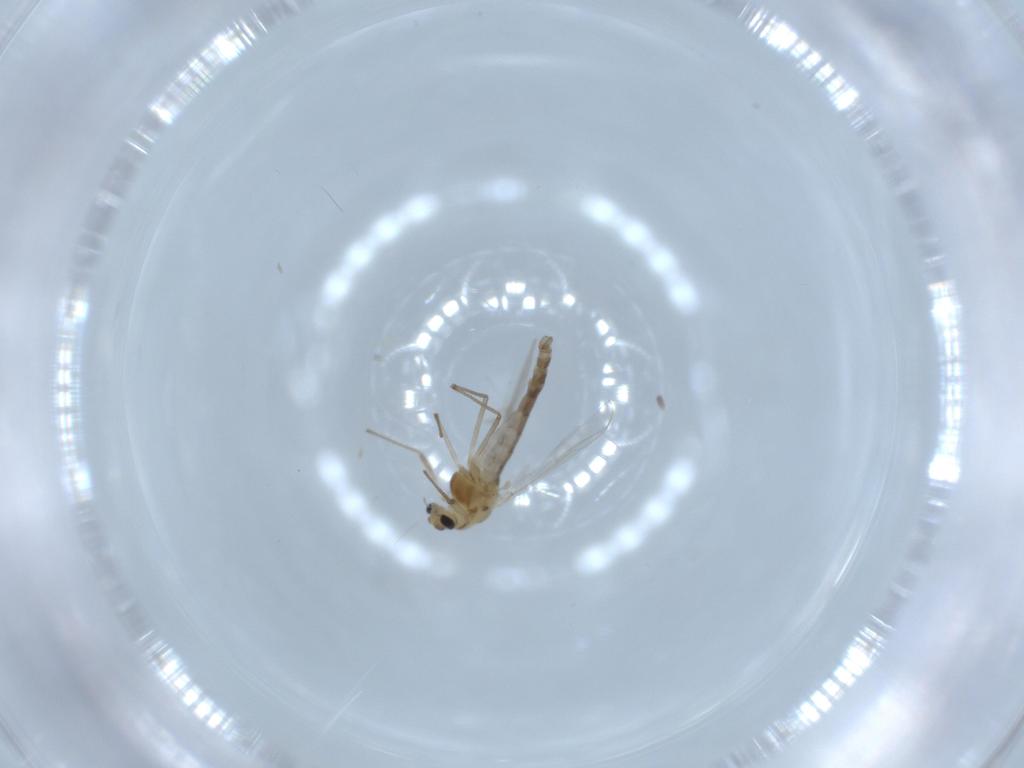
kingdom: Animalia
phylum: Arthropoda
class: Insecta
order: Diptera
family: Chironomidae
